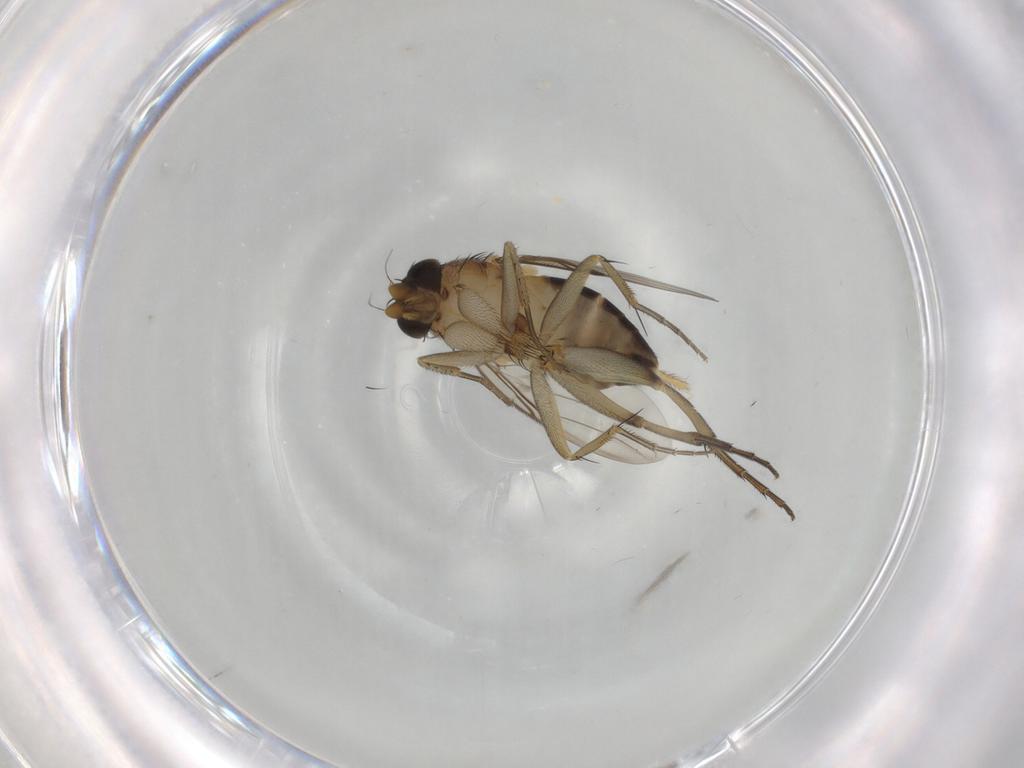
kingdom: Animalia
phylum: Arthropoda
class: Insecta
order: Diptera
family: Phoridae
